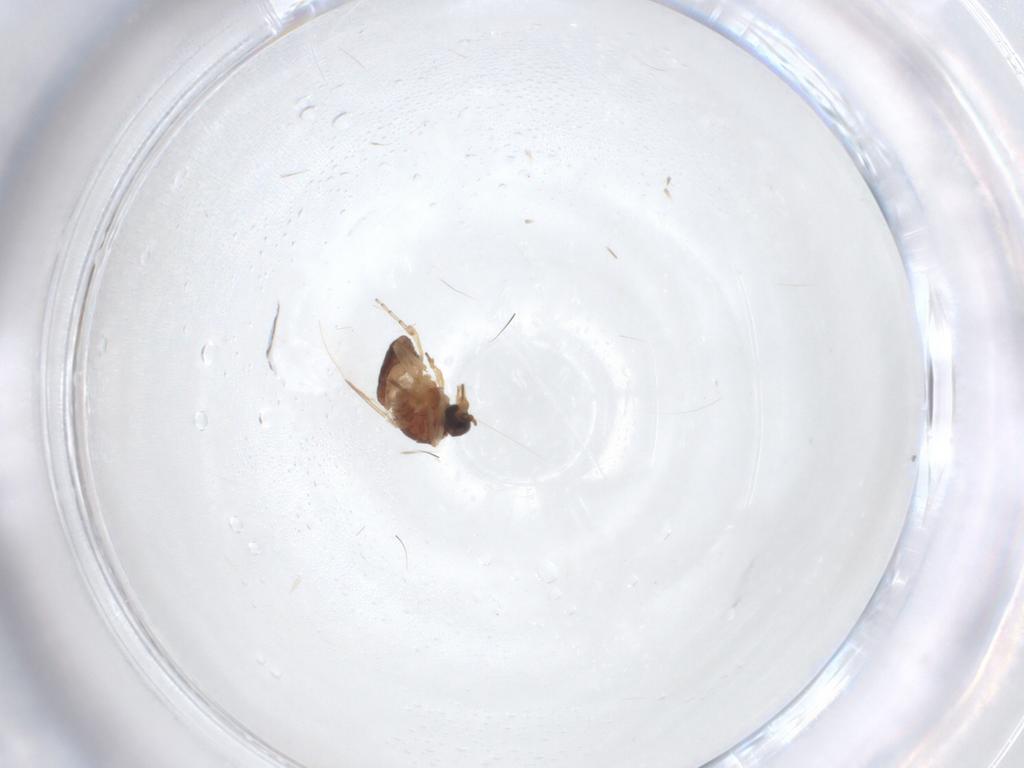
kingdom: Animalia
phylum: Arthropoda
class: Insecta
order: Diptera
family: Ceratopogonidae
